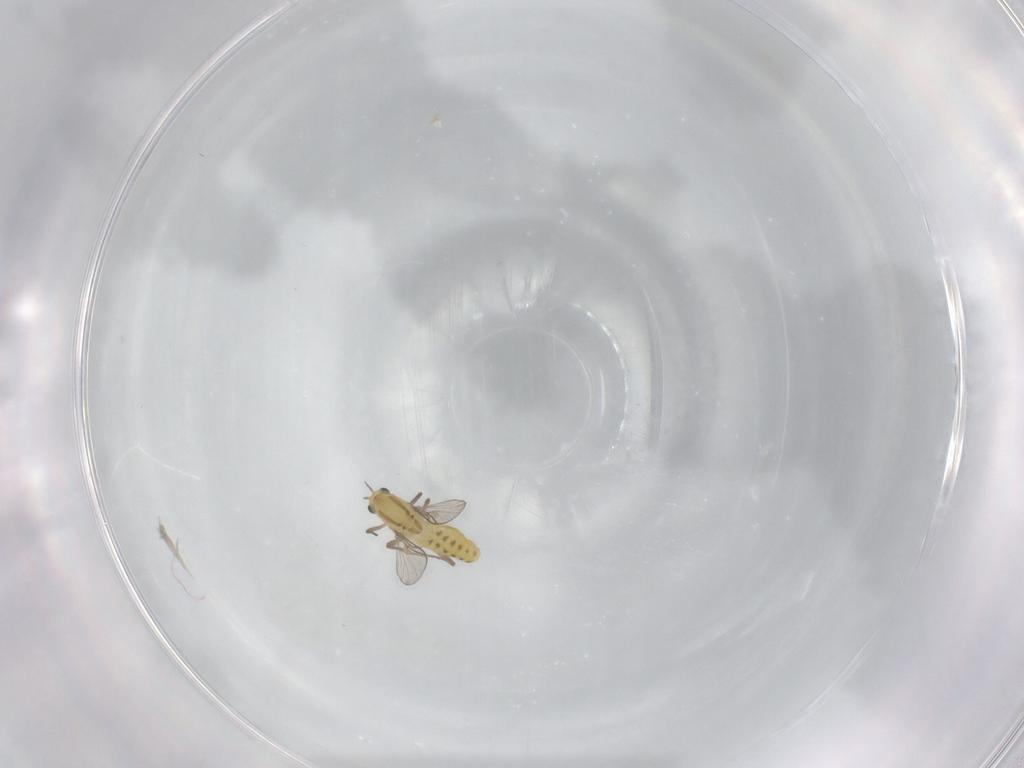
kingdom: Animalia
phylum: Arthropoda
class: Insecta
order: Diptera
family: Chironomidae
